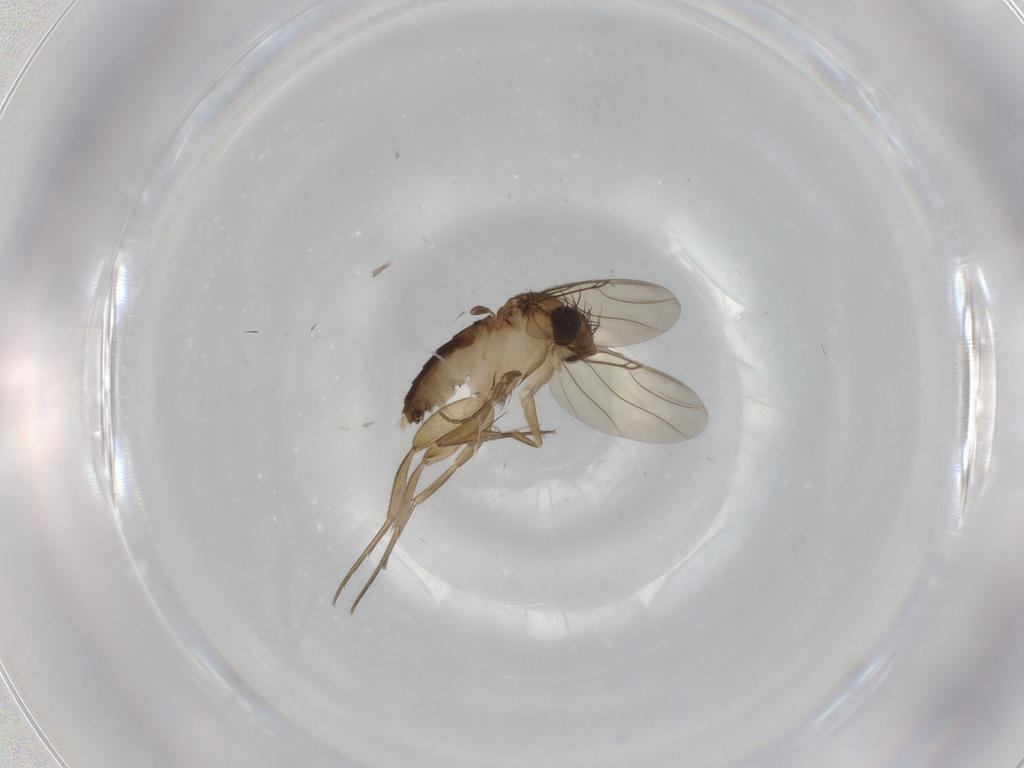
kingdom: Animalia
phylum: Arthropoda
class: Insecta
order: Diptera
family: Phoridae
